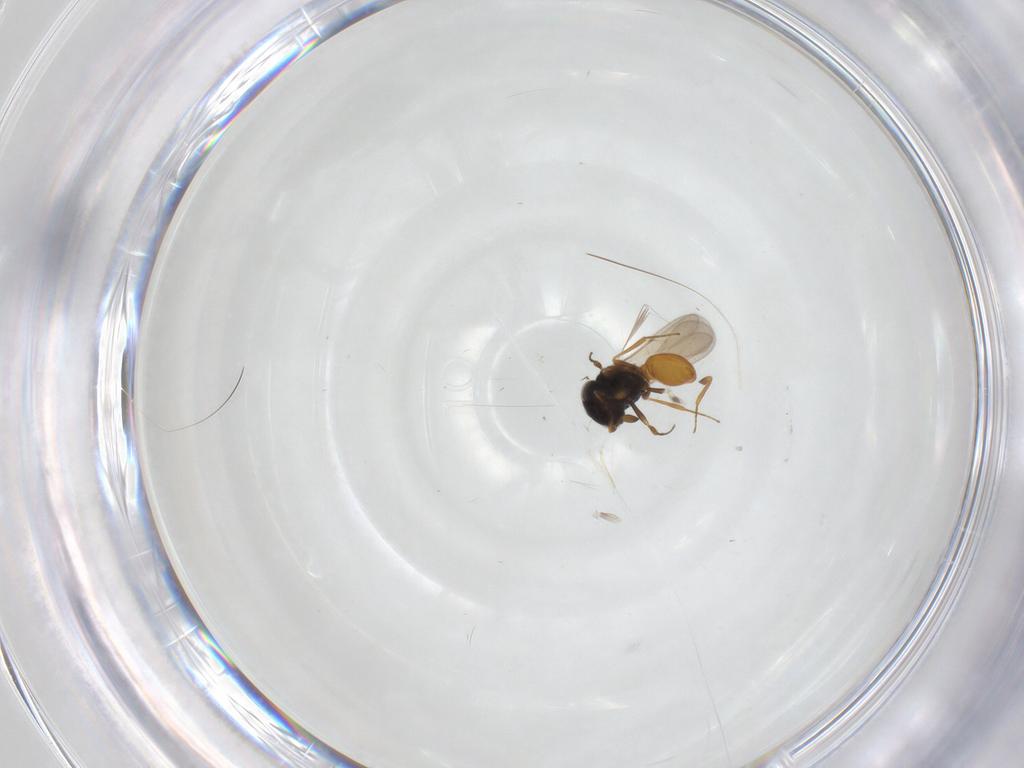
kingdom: Animalia
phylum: Arthropoda
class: Insecta
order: Hymenoptera
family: Scelionidae
